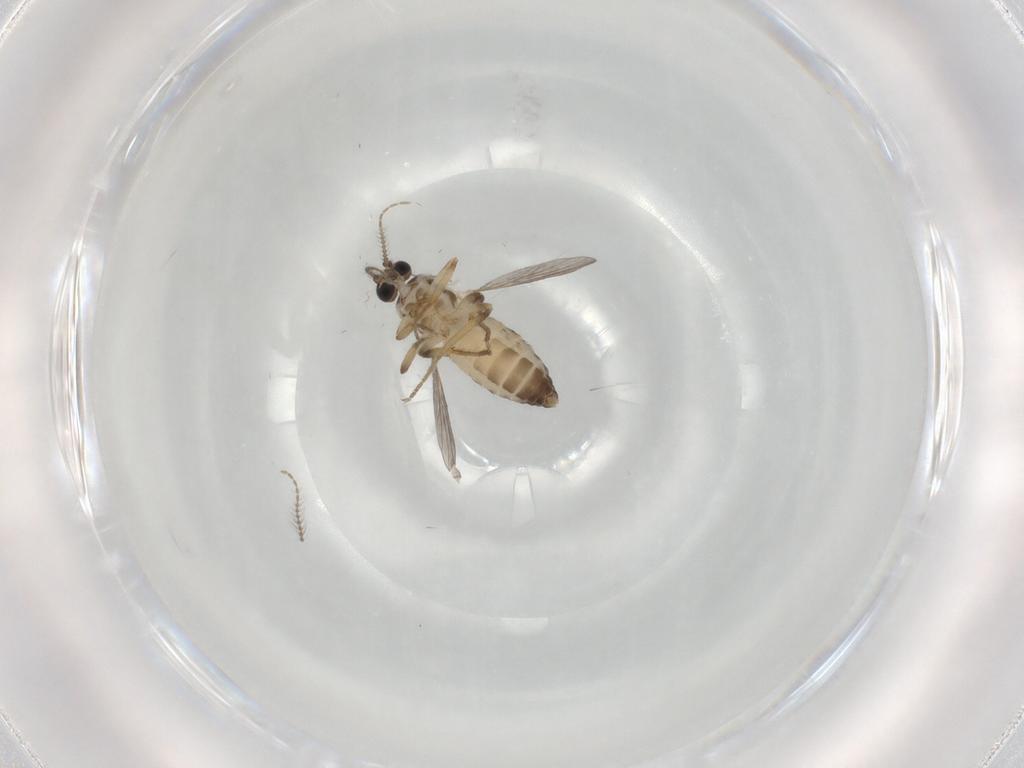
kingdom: Animalia
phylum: Arthropoda
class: Insecta
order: Diptera
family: Ceratopogonidae
